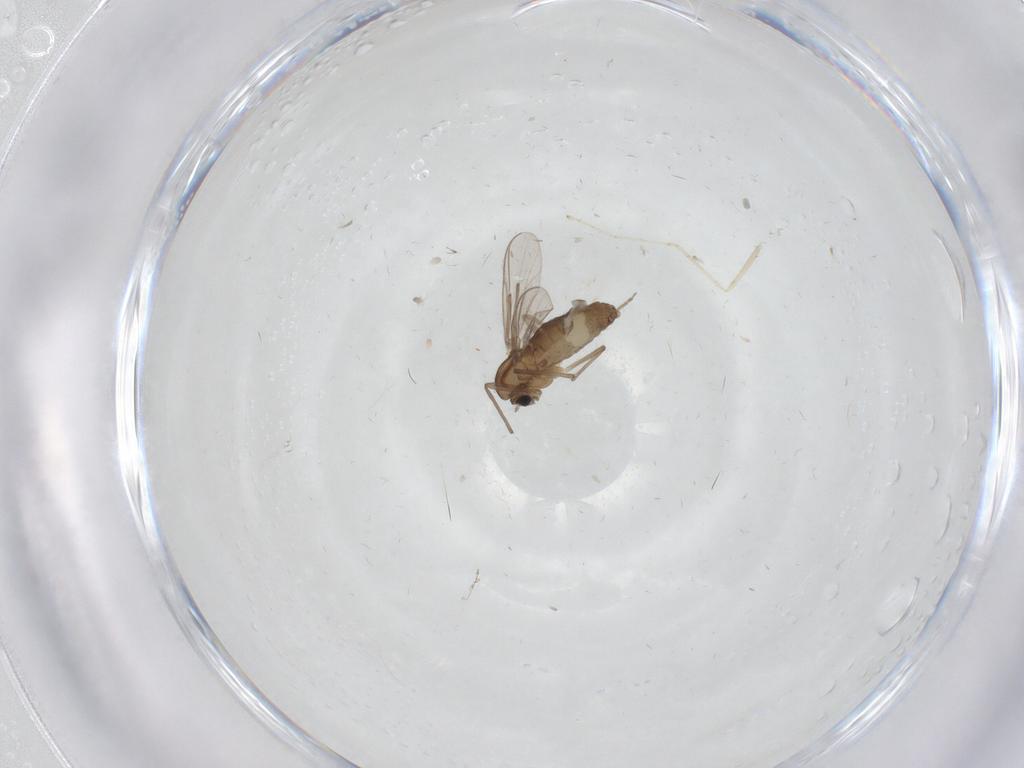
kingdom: Animalia
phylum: Arthropoda
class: Insecta
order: Diptera
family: Chironomidae
